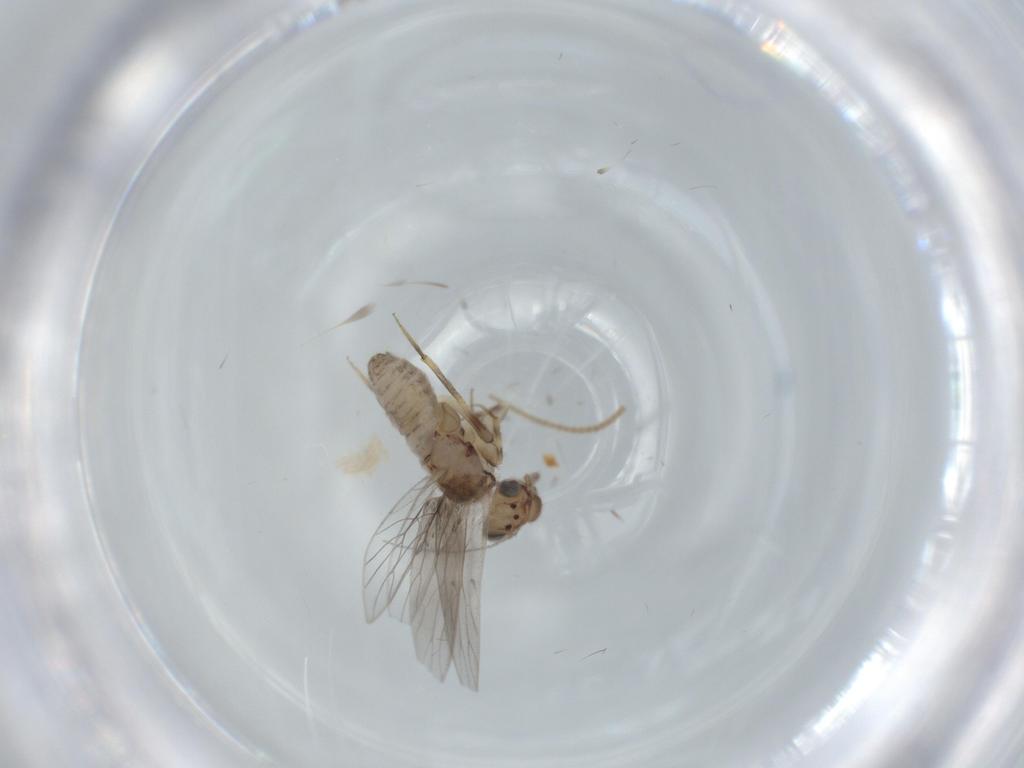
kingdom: Animalia
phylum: Arthropoda
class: Insecta
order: Psocodea
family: Lepidopsocidae
